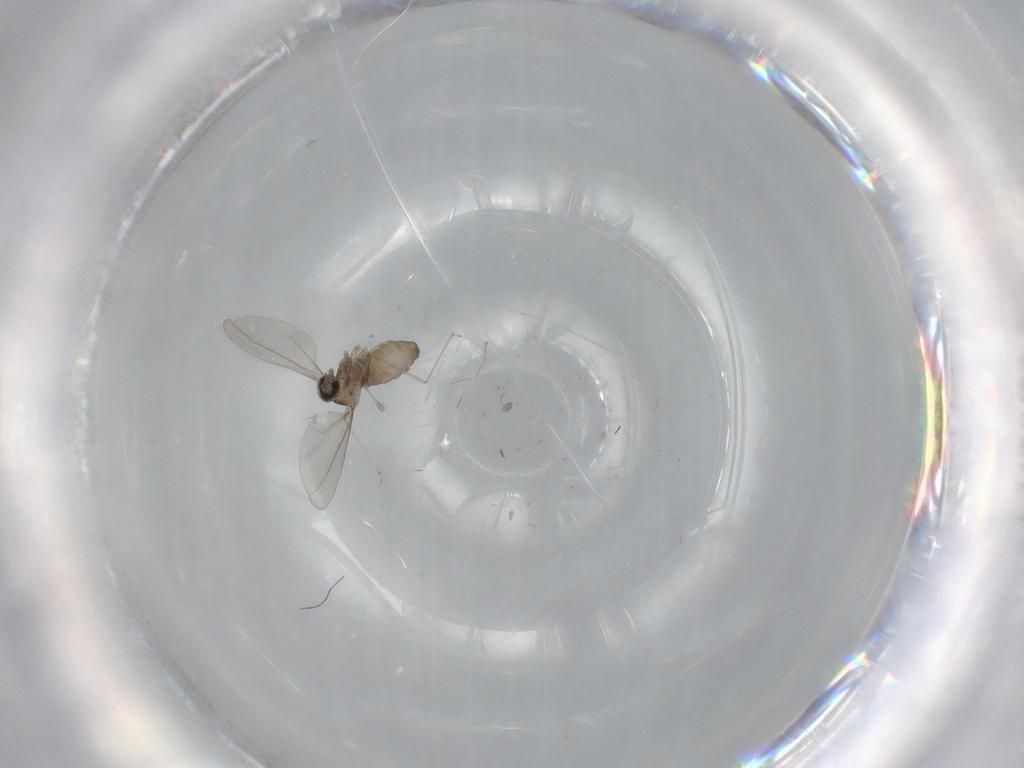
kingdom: Animalia
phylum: Arthropoda
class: Insecta
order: Diptera
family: Cecidomyiidae
